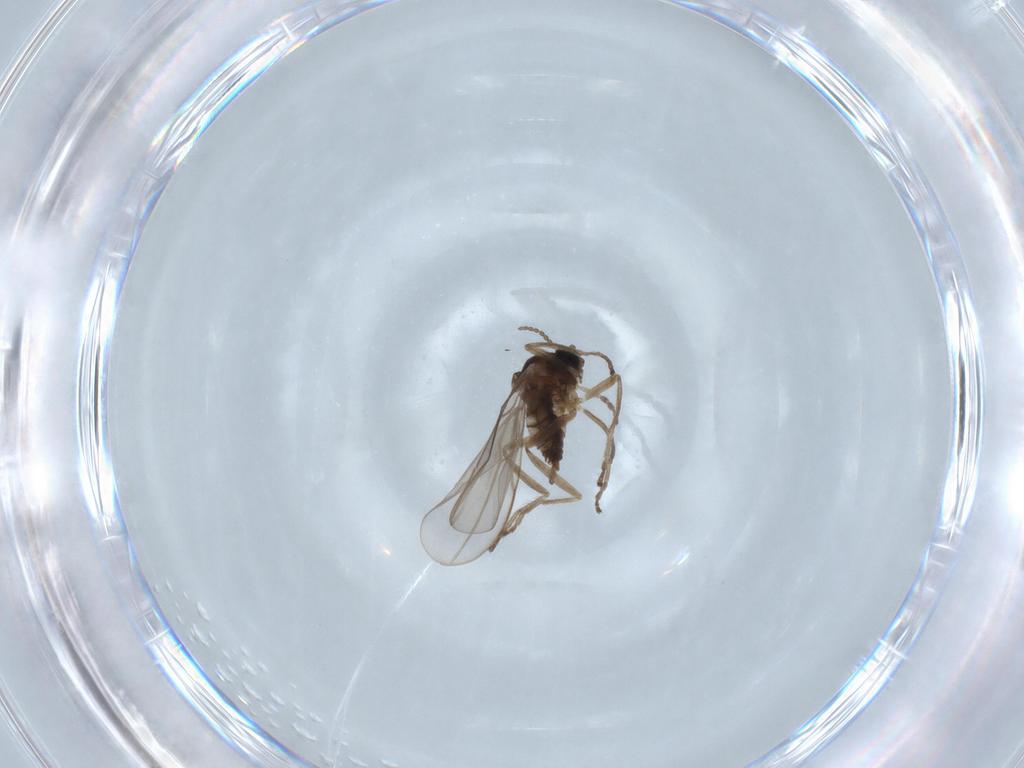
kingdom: Animalia
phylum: Arthropoda
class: Insecta
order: Diptera
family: Cecidomyiidae
